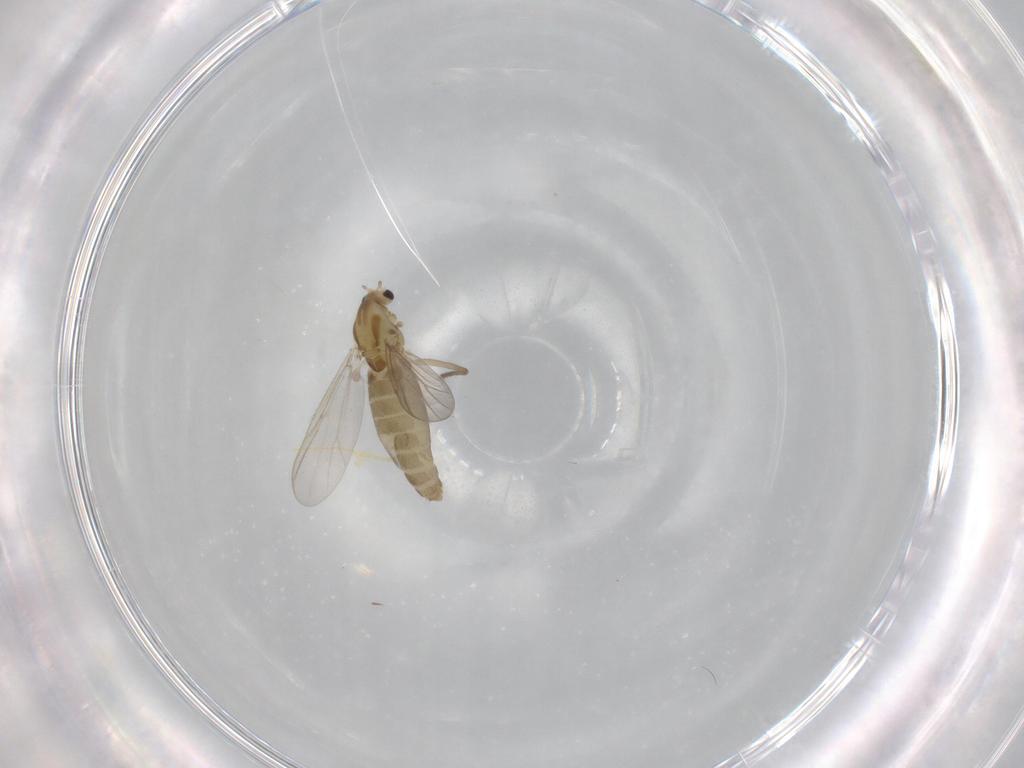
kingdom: Animalia
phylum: Arthropoda
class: Insecta
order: Diptera
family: Chironomidae
